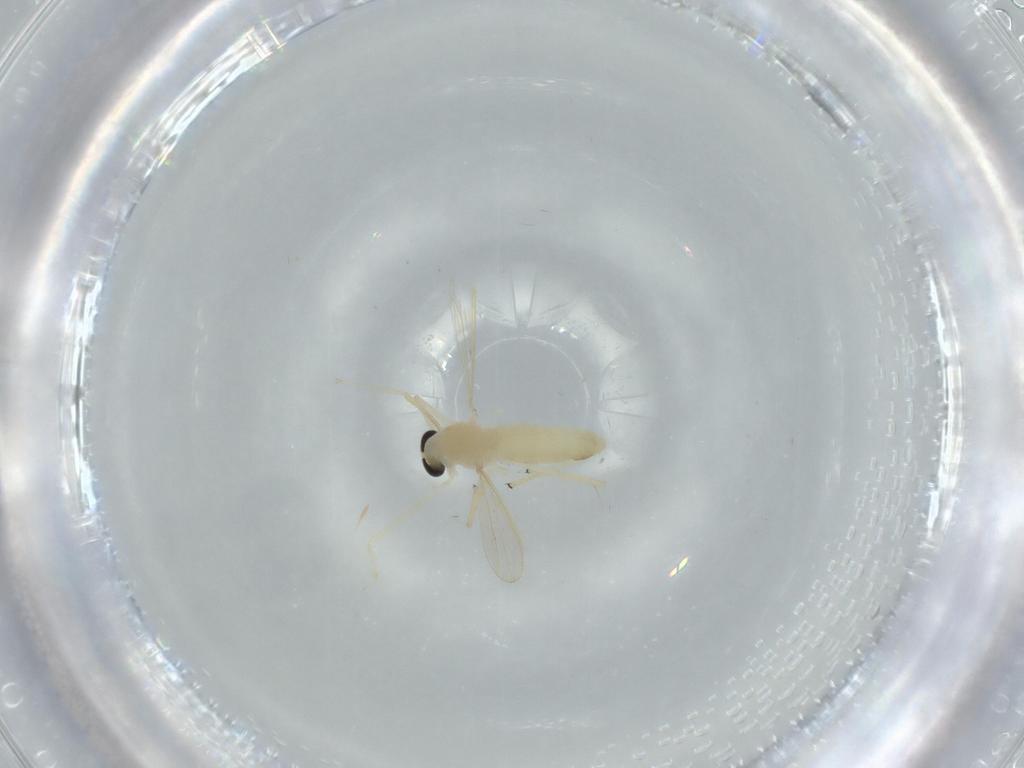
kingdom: Animalia
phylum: Arthropoda
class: Insecta
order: Diptera
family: Chironomidae
